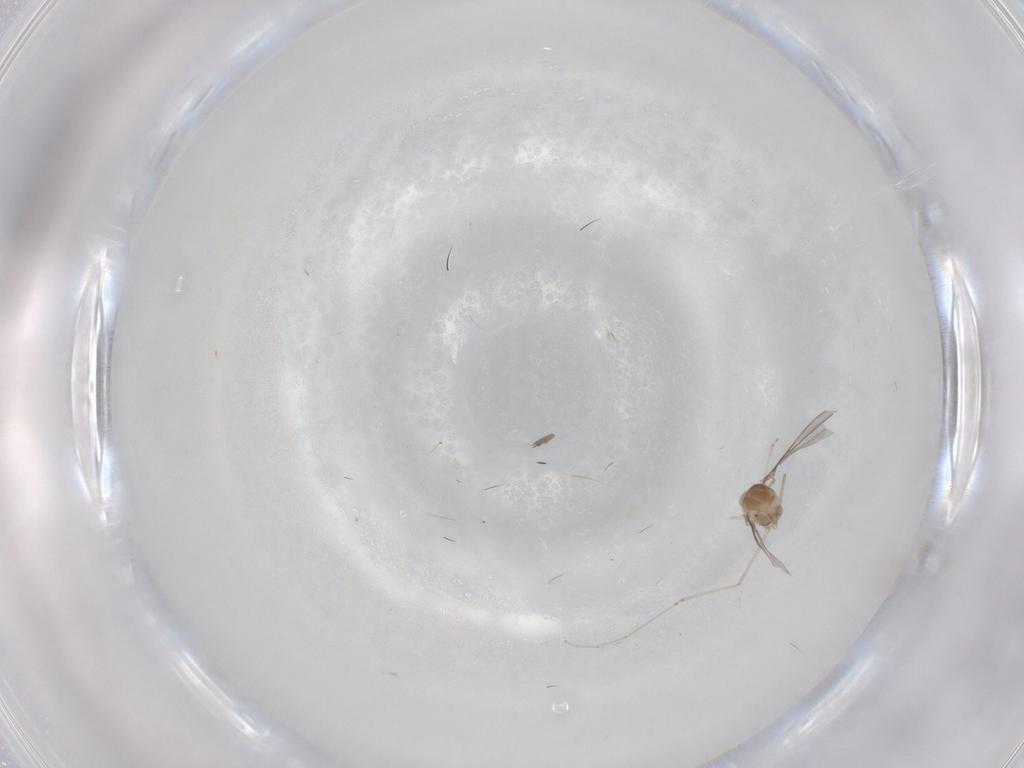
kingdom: Animalia
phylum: Arthropoda
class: Insecta
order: Diptera
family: Cecidomyiidae
